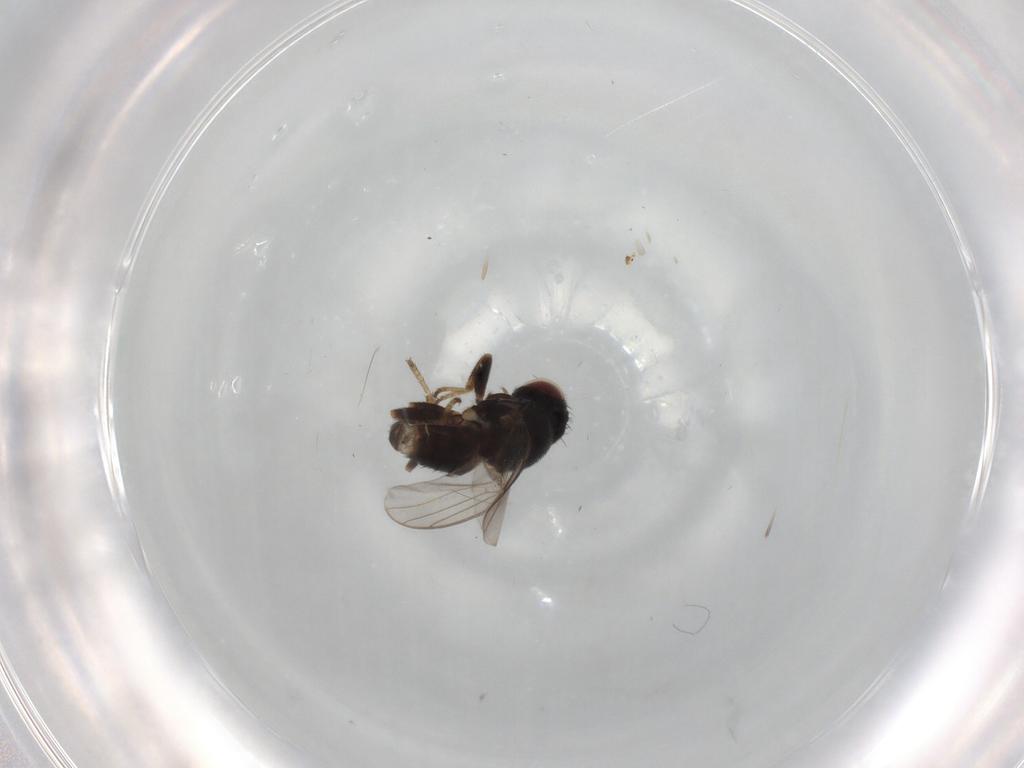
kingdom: Animalia
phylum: Arthropoda
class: Insecta
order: Diptera
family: Chloropidae
